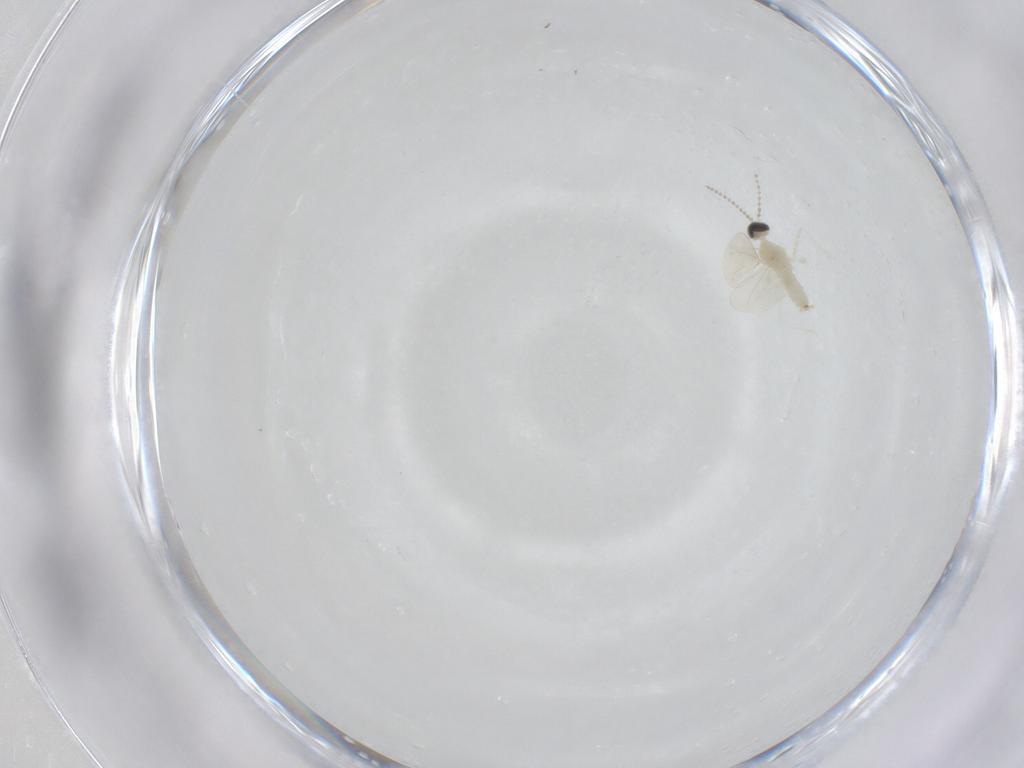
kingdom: Animalia
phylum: Arthropoda
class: Insecta
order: Diptera
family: Cecidomyiidae
